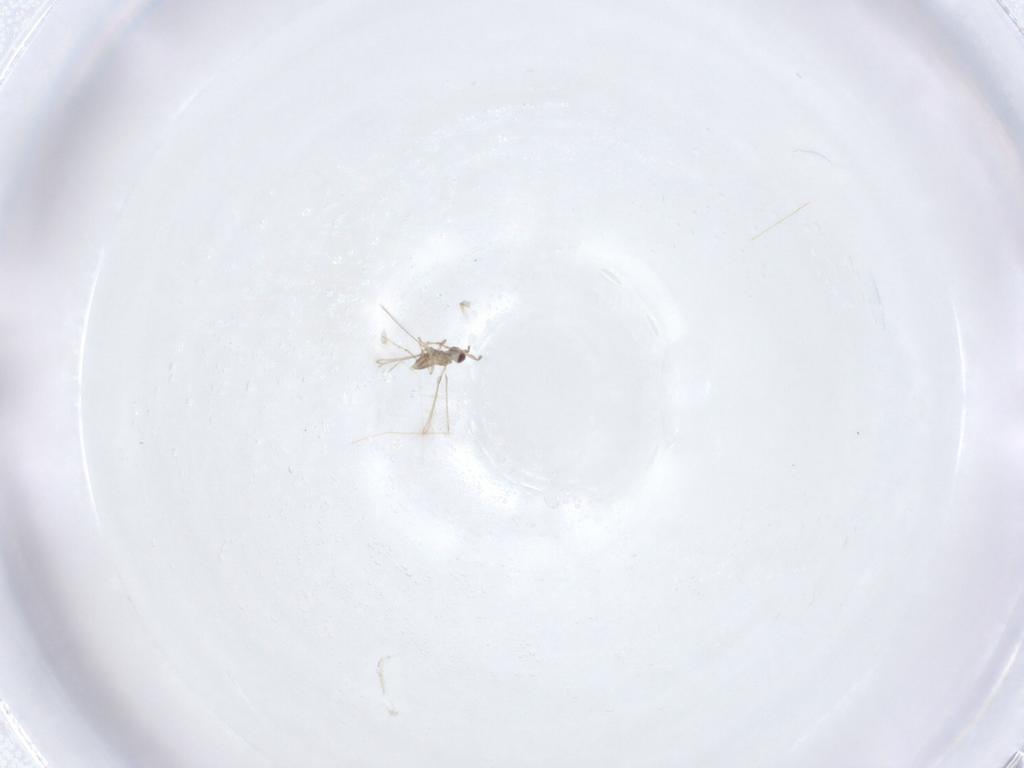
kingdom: Animalia
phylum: Arthropoda
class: Insecta
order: Hymenoptera
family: Mymaridae
